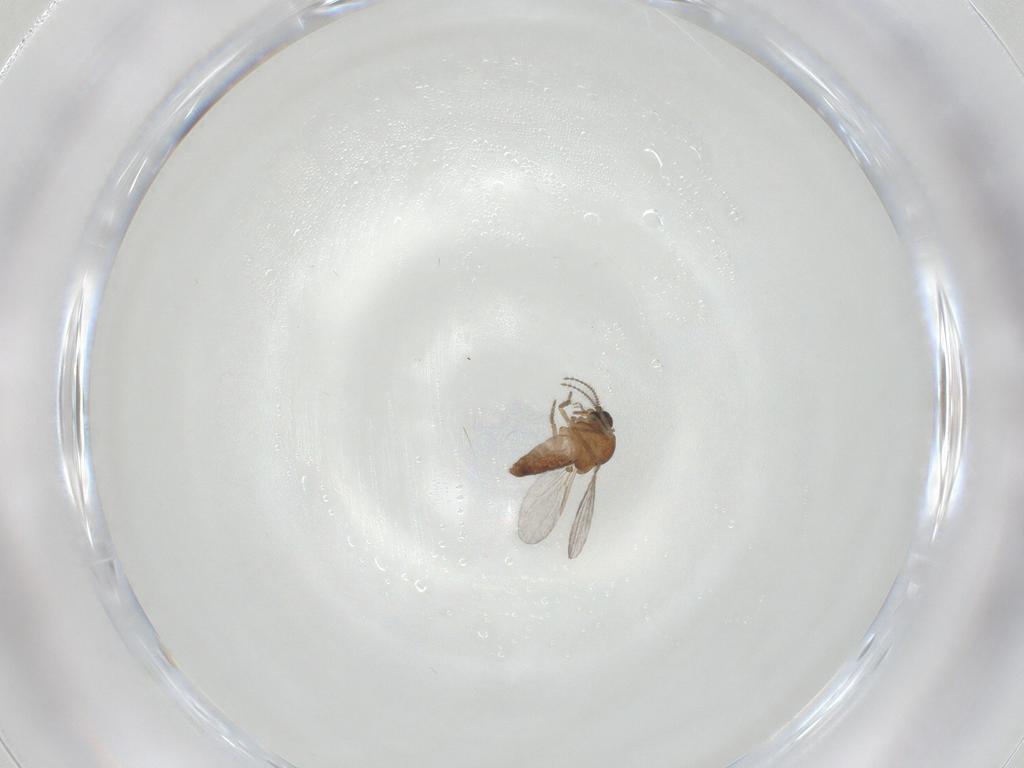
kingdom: Animalia
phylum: Arthropoda
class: Insecta
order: Diptera
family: Ceratopogonidae
